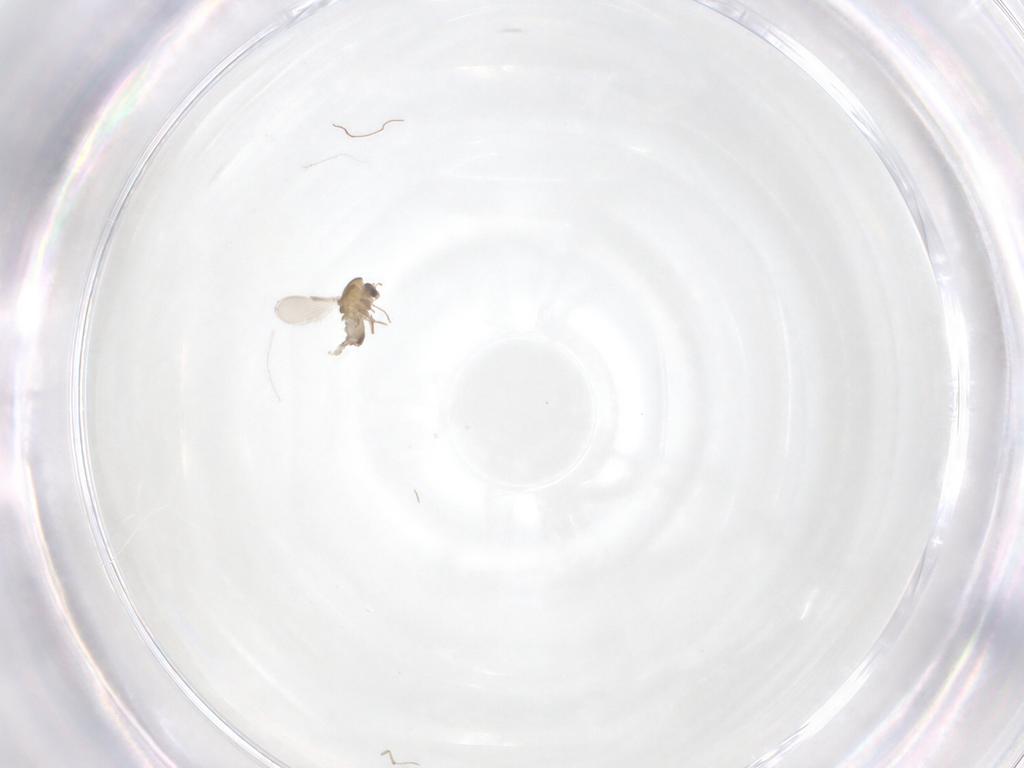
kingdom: Animalia
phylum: Arthropoda
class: Insecta
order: Diptera
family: Chironomidae
